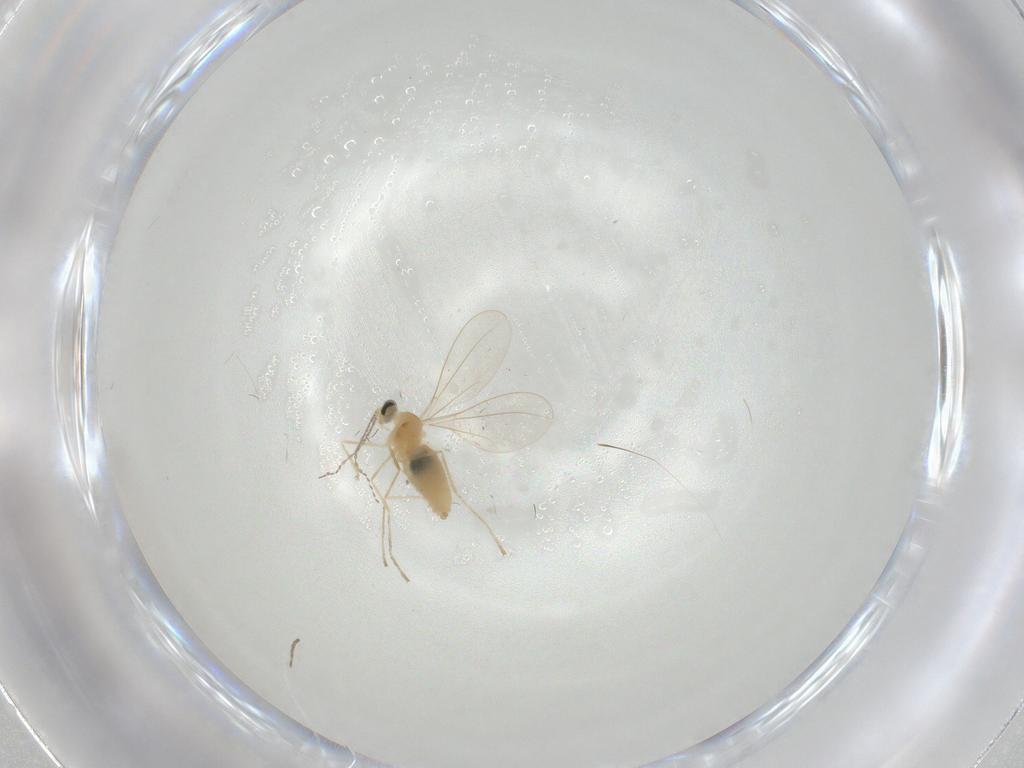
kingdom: Animalia
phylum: Arthropoda
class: Insecta
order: Diptera
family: Cecidomyiidae
